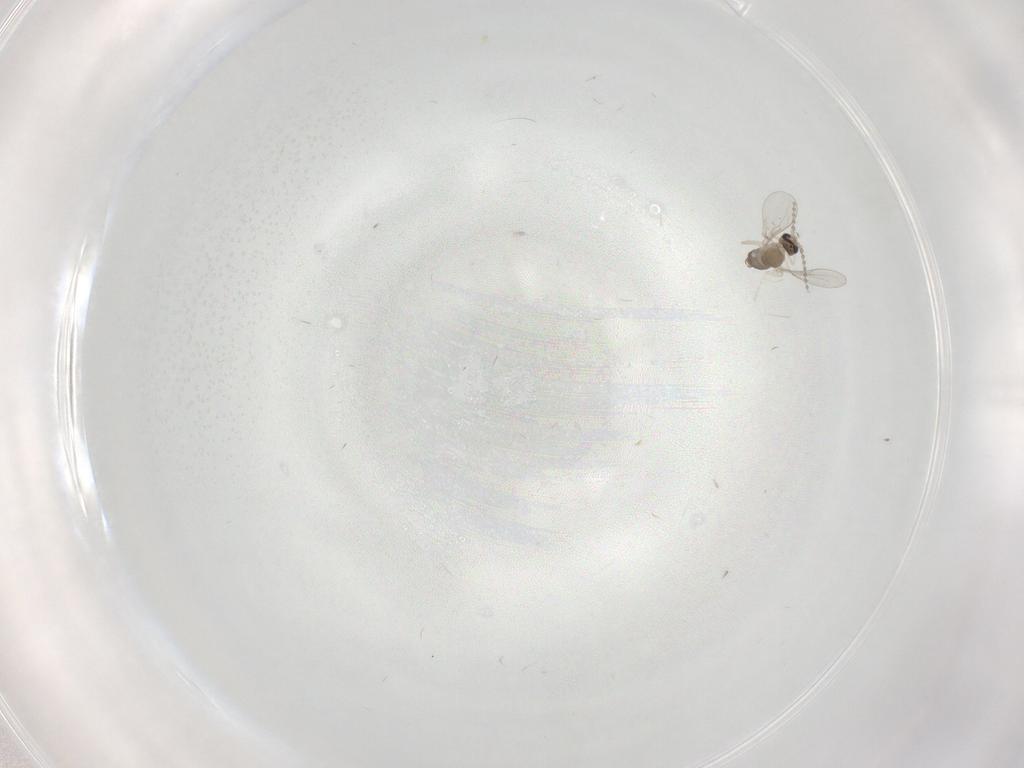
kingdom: Animalia
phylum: Arthropoda
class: Insecta
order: Diptera
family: Cecidomyiidae
